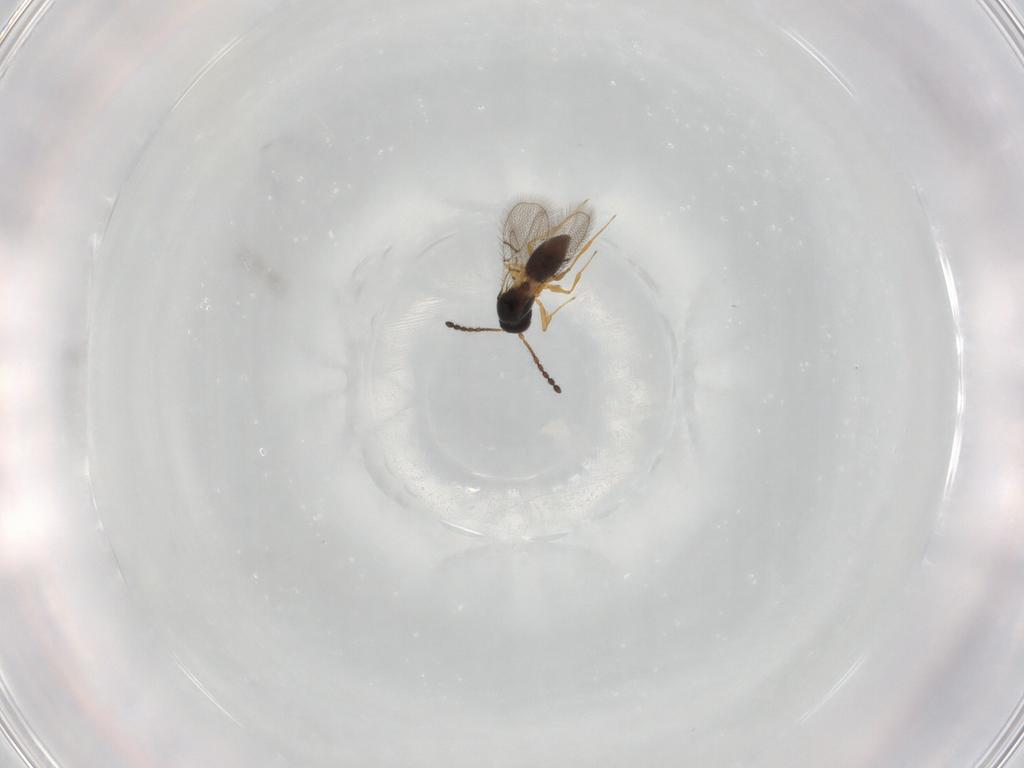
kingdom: Animalia
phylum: Arthropoda
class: Insecta
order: Hymenoptera
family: Figitidae
